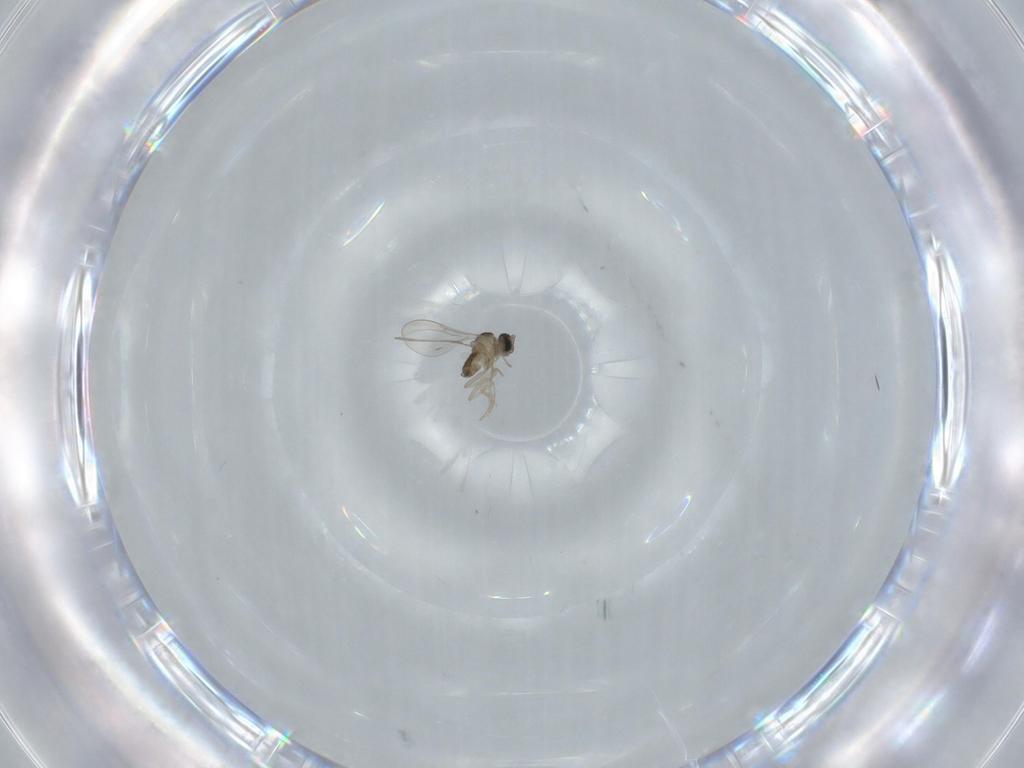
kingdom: Animalia
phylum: Arthropoda
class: Insecta
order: Diptera
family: Cecidomyiidae
